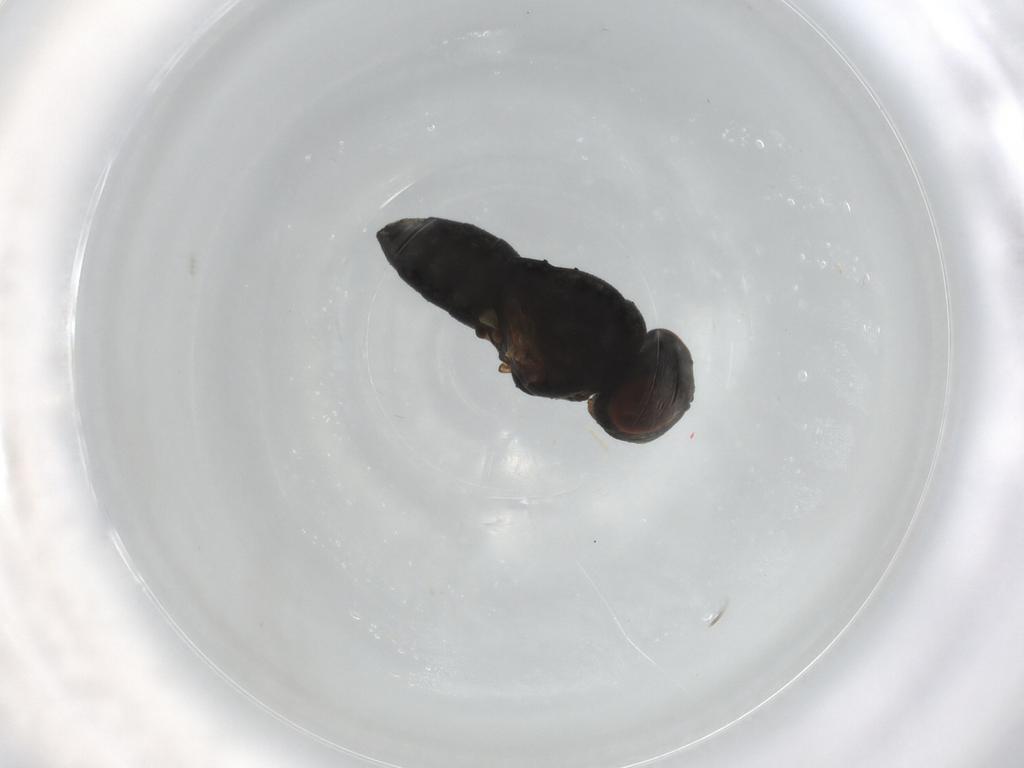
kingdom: Animalia
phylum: Arthropoda
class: Insecta
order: Diptera
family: Ephydridae
